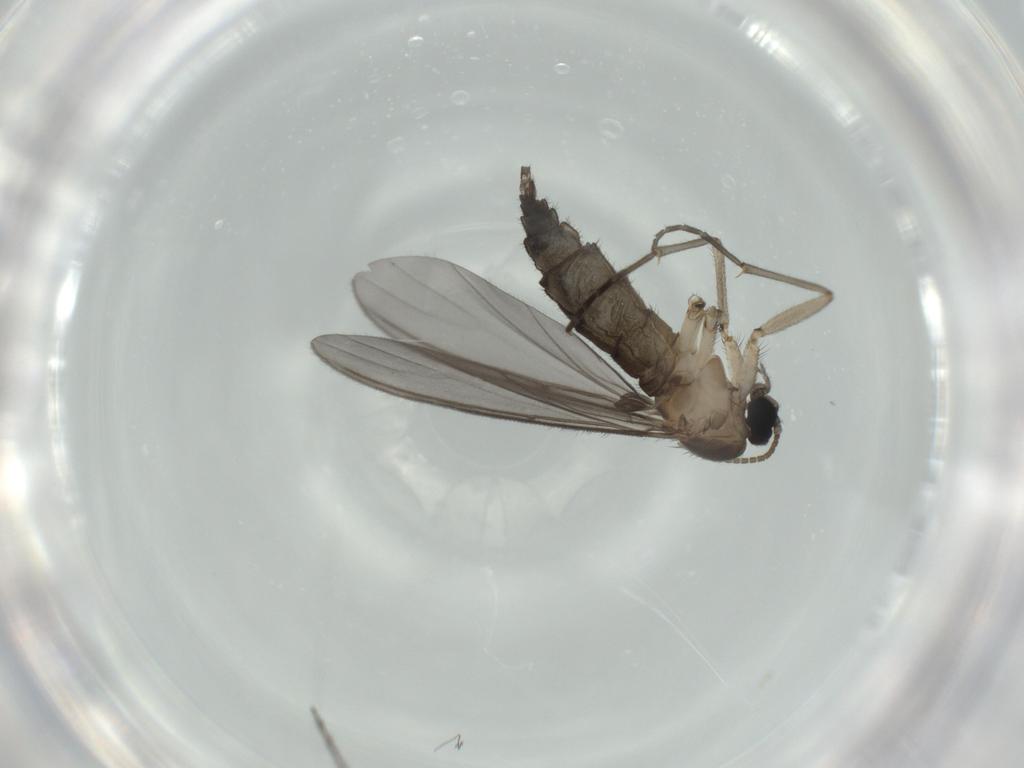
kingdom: Animalia
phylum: Arthropoda
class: Insecta
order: Diptera
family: Sciaridae
